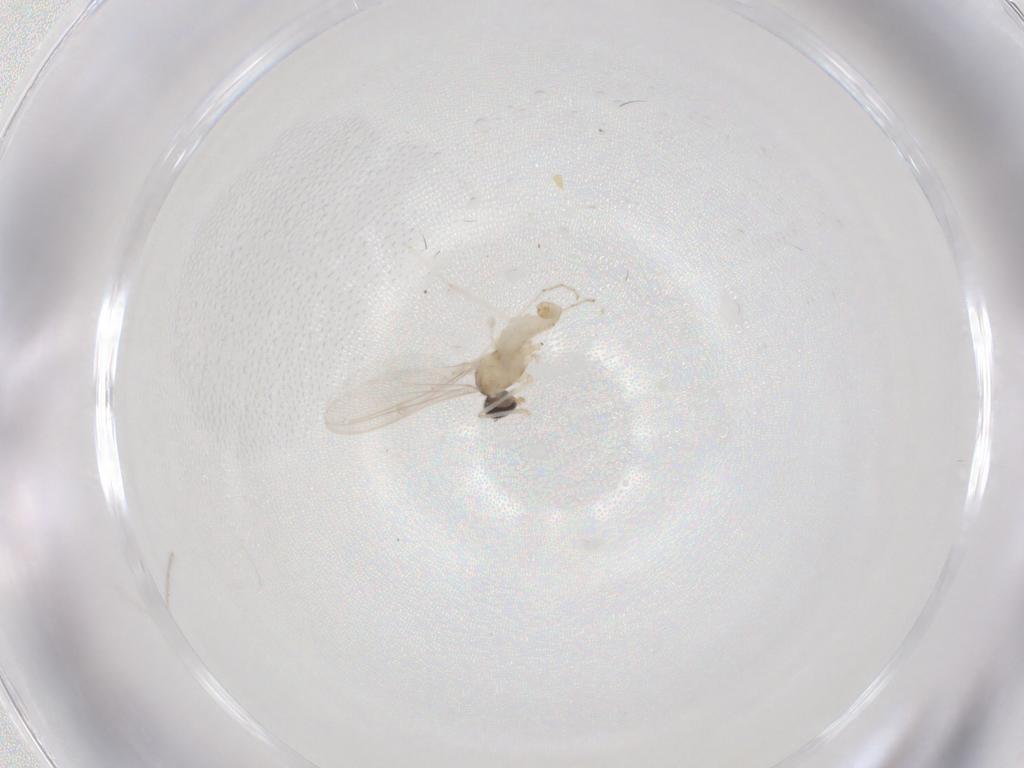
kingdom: Animalia
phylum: Arthropoda
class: Insecta
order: Diptera
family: Cecidomyiidae
